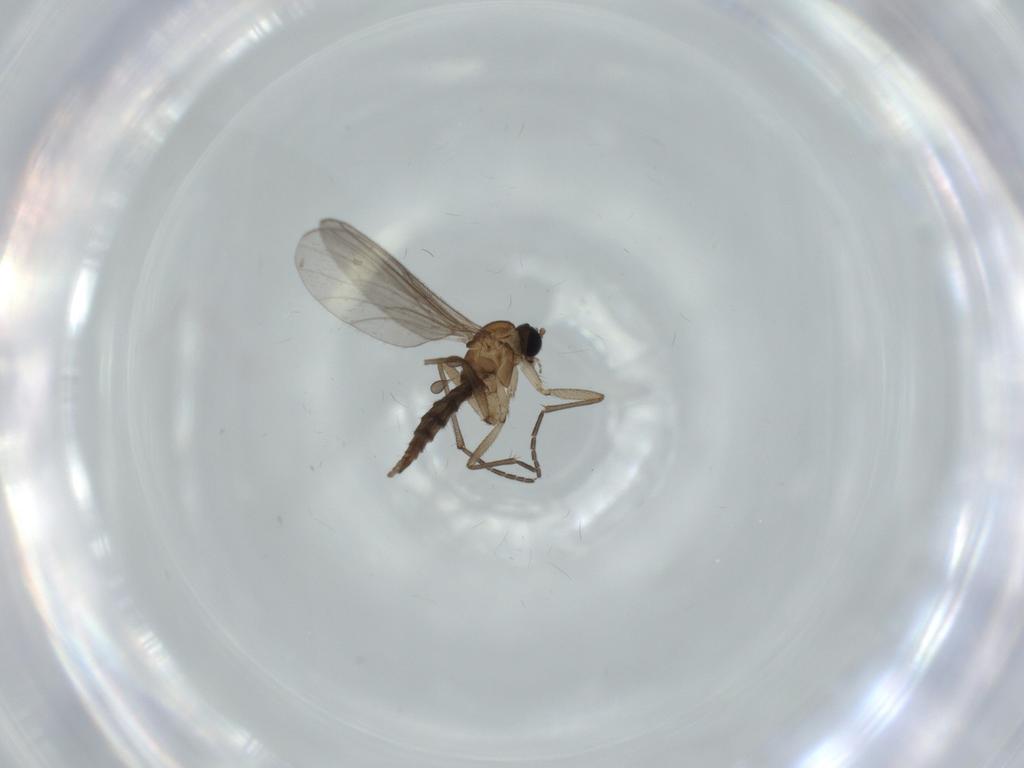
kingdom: Animalia
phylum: Arthropoda
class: Insecta
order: Diptera
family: Sciaridae
